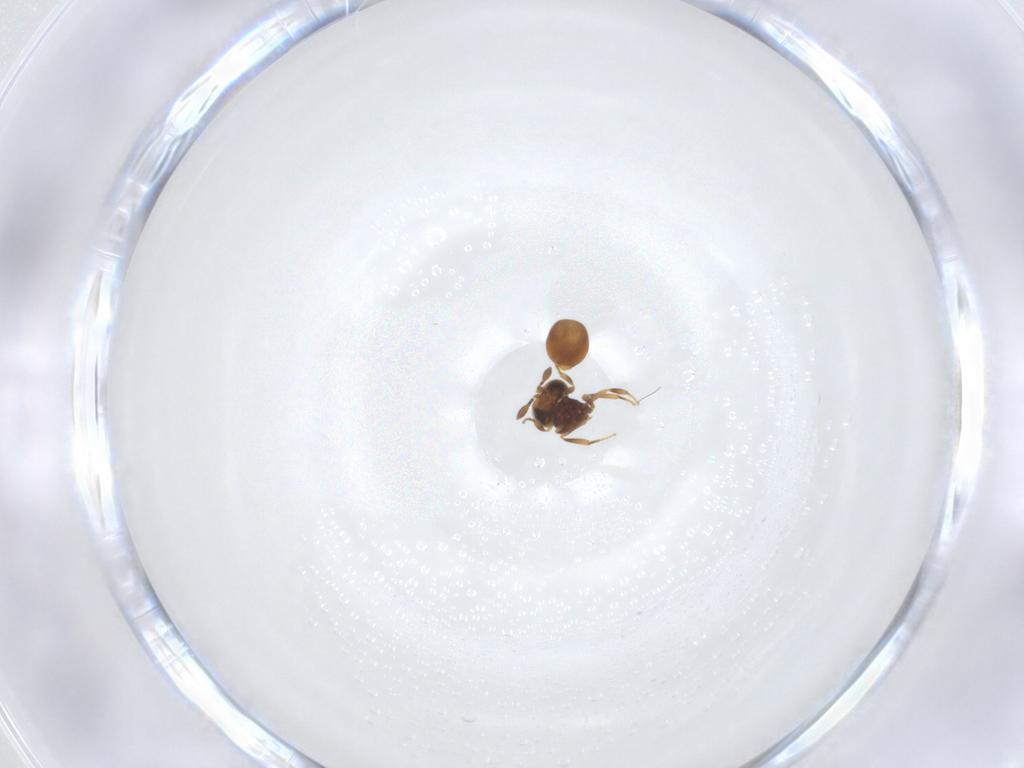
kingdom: Animalia
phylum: Arthropoda
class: Insecta
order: Hymenoptera
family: Scelionidae
